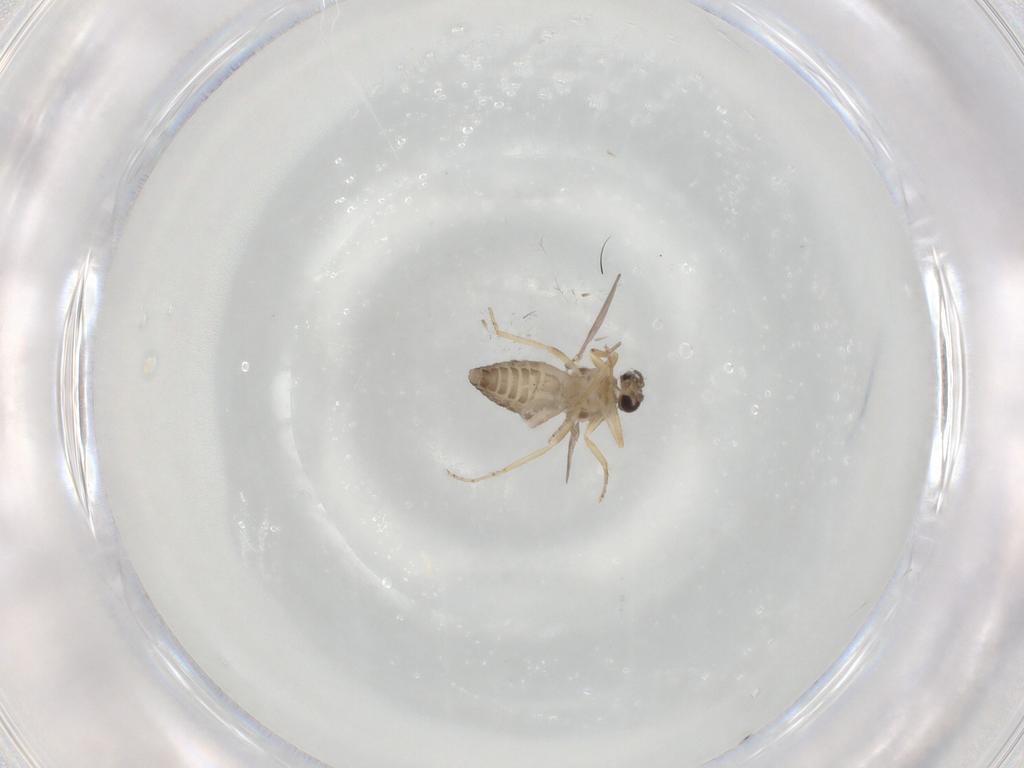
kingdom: Animalia
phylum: Arthropoda
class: Insecta
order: Diptera
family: Ceratopogonidae
